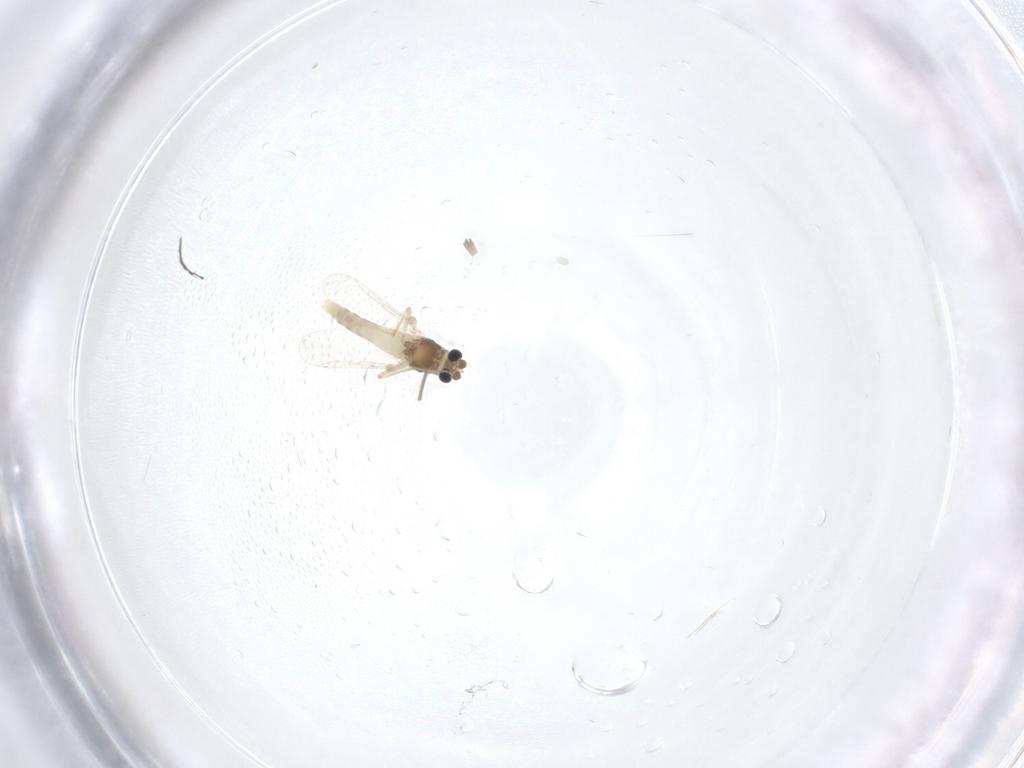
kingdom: Animalia
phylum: Arthropoda
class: Insecta
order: Diptera
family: Chironomidae
